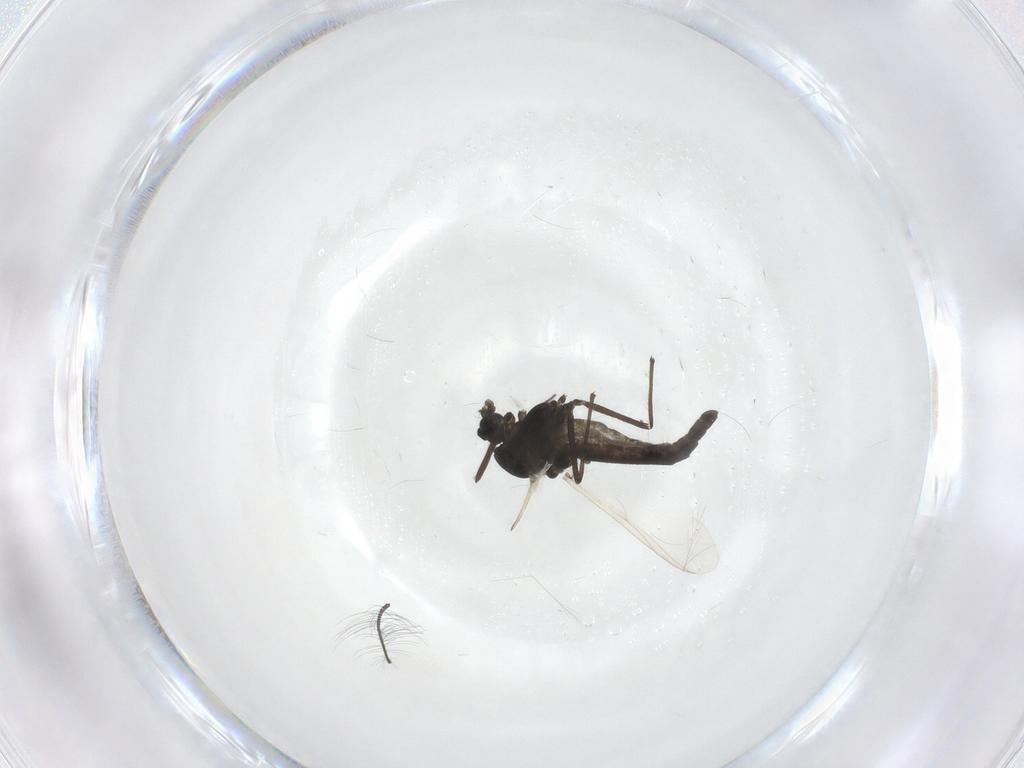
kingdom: Animalia
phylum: Arthropoda
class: Insecta
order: Diptera
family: Chironomidae
